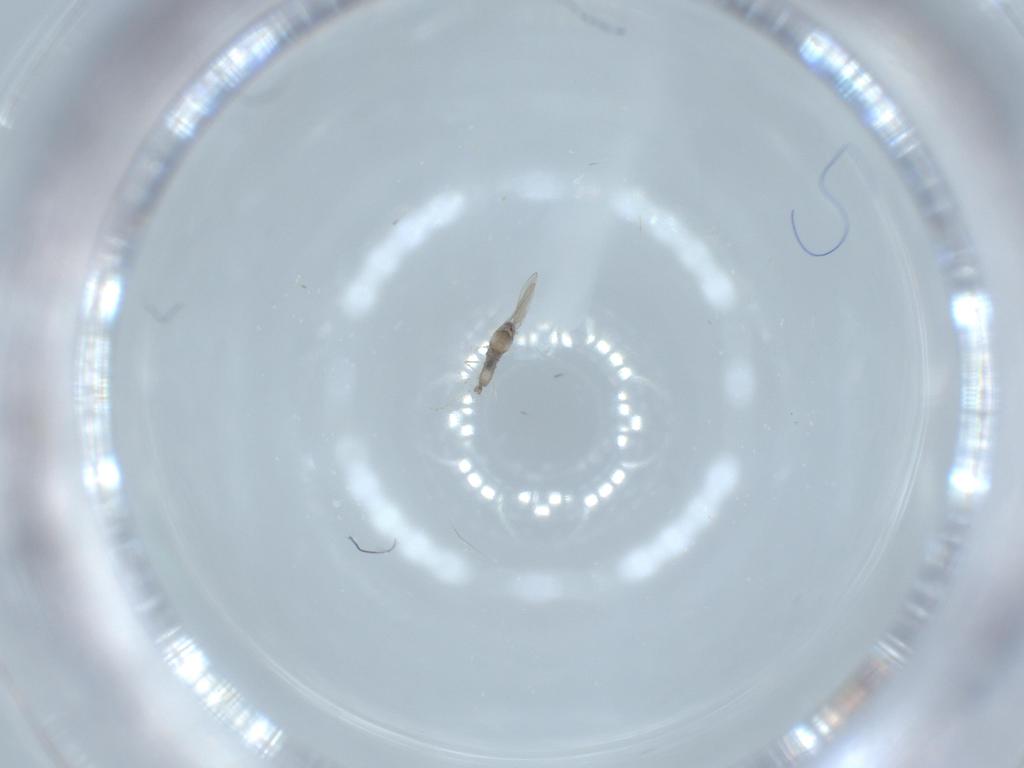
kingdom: Animalia
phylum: Arthropoda
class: Insecta
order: Diptera
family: Cecidomyiidae
